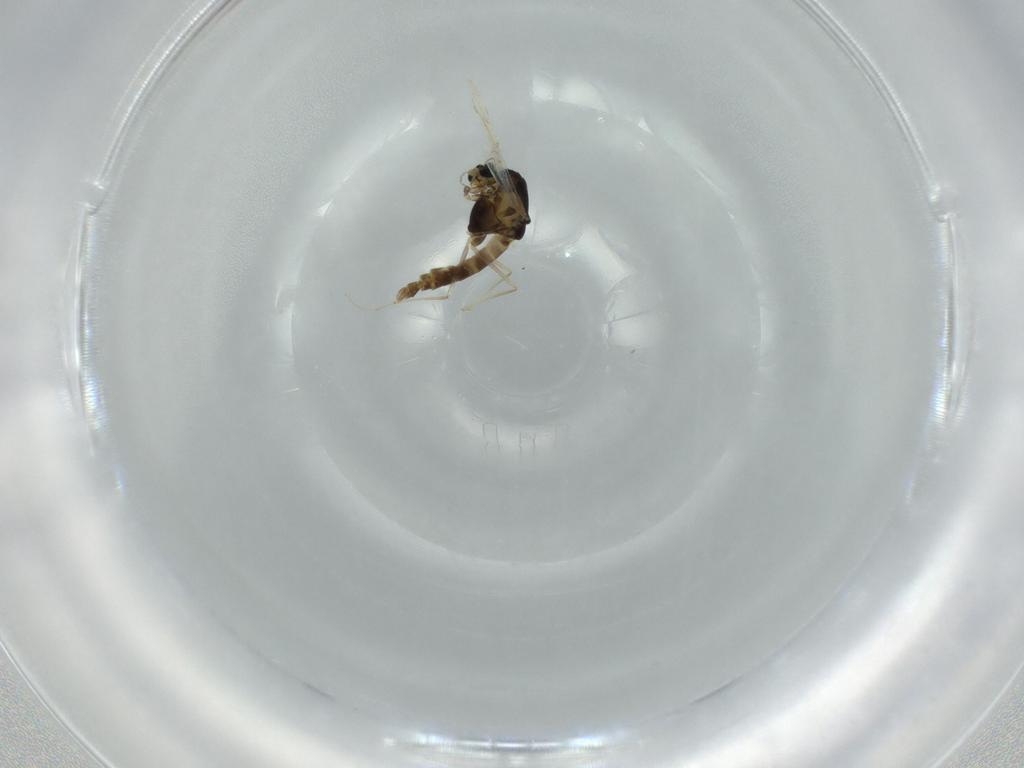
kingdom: Animalia
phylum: Arthropoda
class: Insecta
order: Diptera
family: Chironomidae
